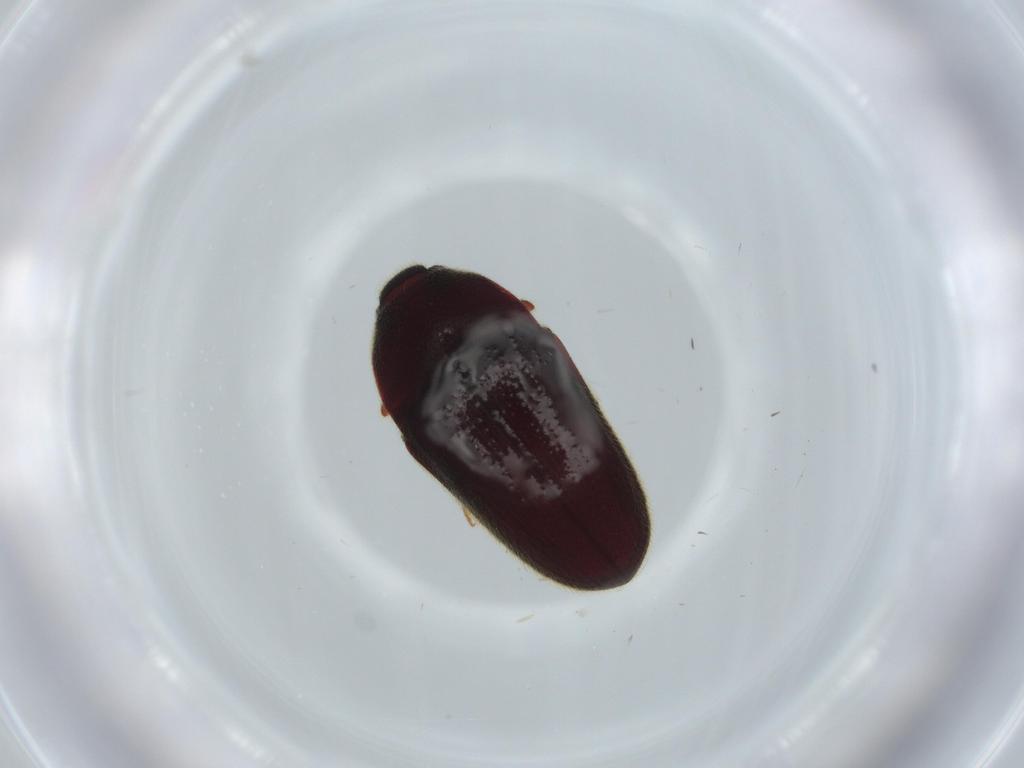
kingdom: Animalia
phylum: Arthropoda
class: Insecta
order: Coleoptera
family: Throscidae
